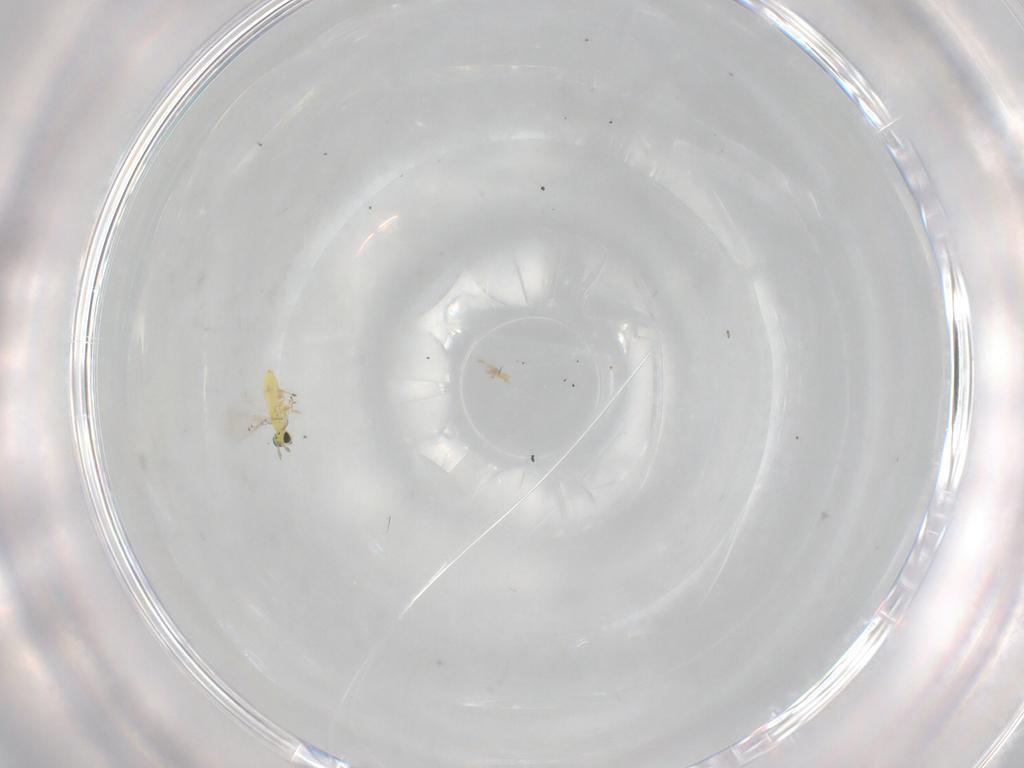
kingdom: Animalia
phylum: Arthropoda
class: Insecta
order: Hymenoptera
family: Trichogrammatidae
